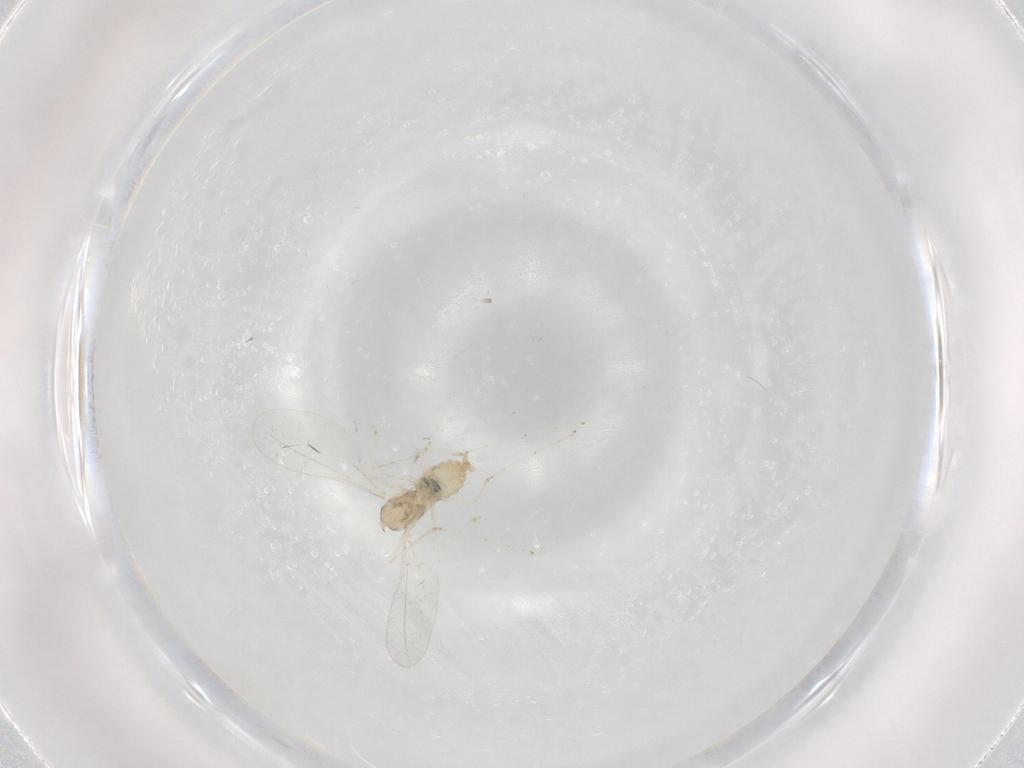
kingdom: Animalia
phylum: Arthropoda
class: Insecta
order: Diptera
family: Cecidomyiidae
